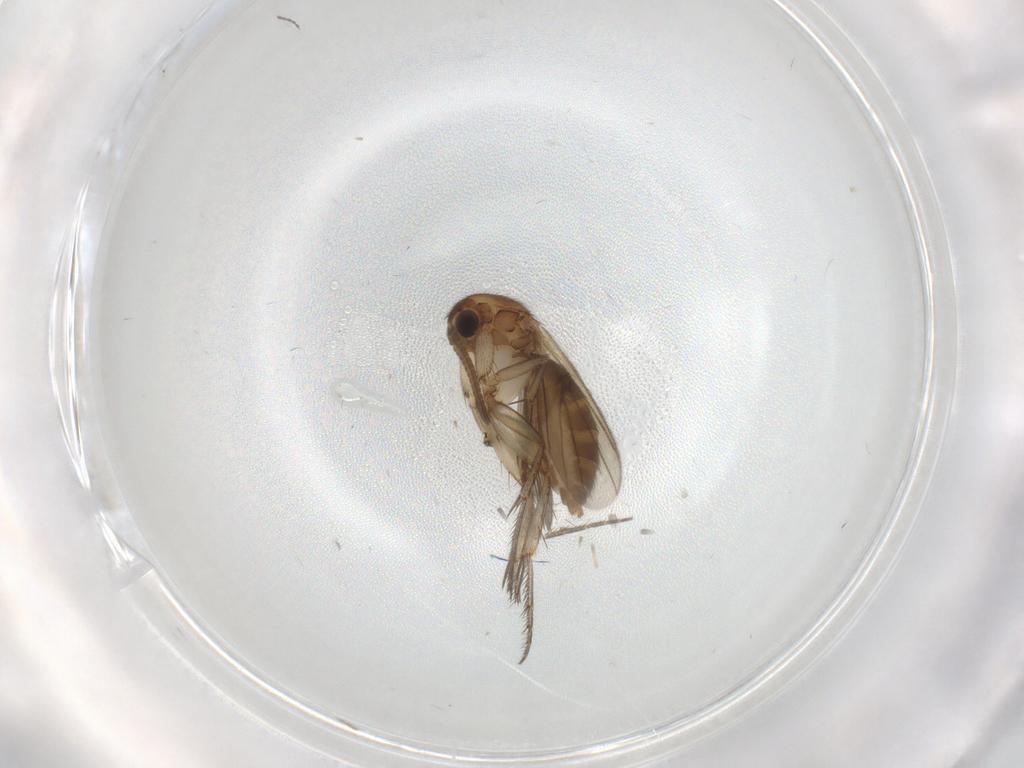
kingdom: Animalia
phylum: Arthropoda
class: Insecta
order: Diptera
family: Mycetophilidae
